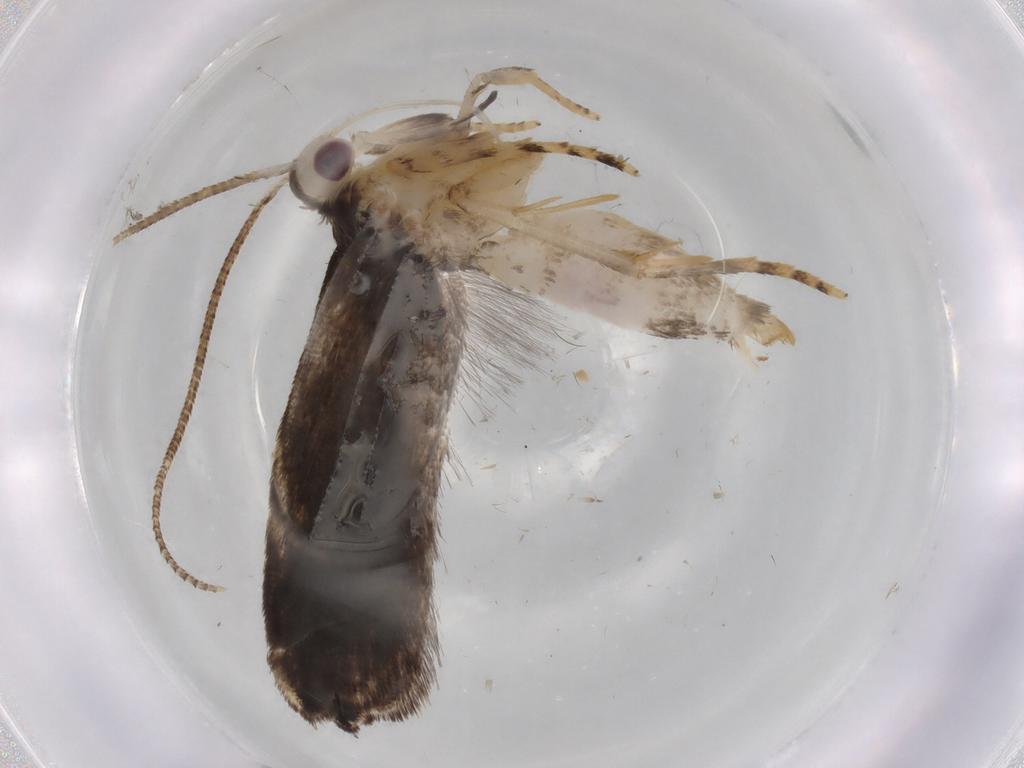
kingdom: Animalia
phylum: Arthropoda
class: Insecta
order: Lepidoptera
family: Gelechiidae
